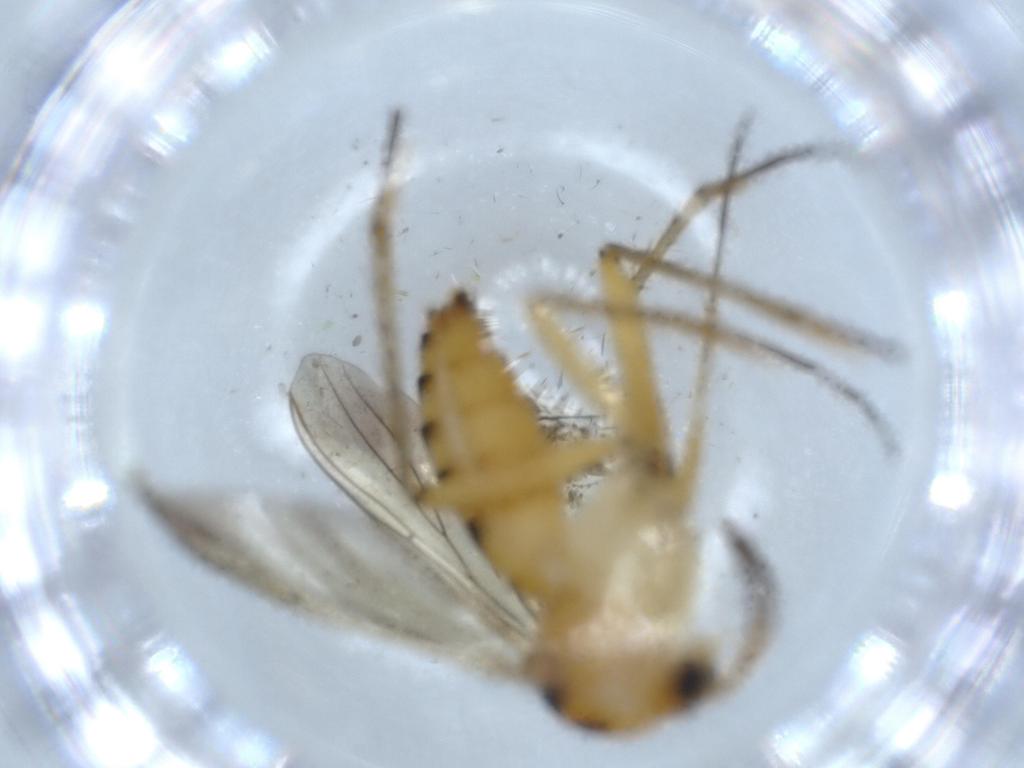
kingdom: Animalia
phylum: Arthropoda
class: Insecta
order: Diptera
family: Mycetophilidae
